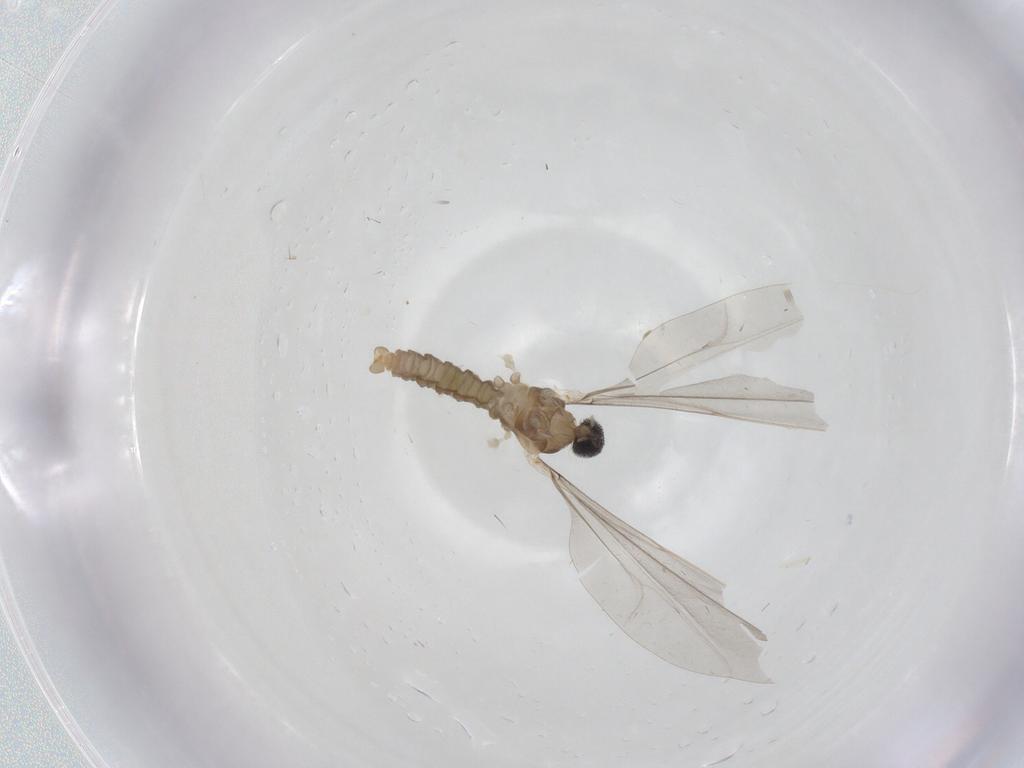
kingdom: Animalia
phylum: Arthropoda
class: Insecta
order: Diptera
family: Cecidomyiidae
